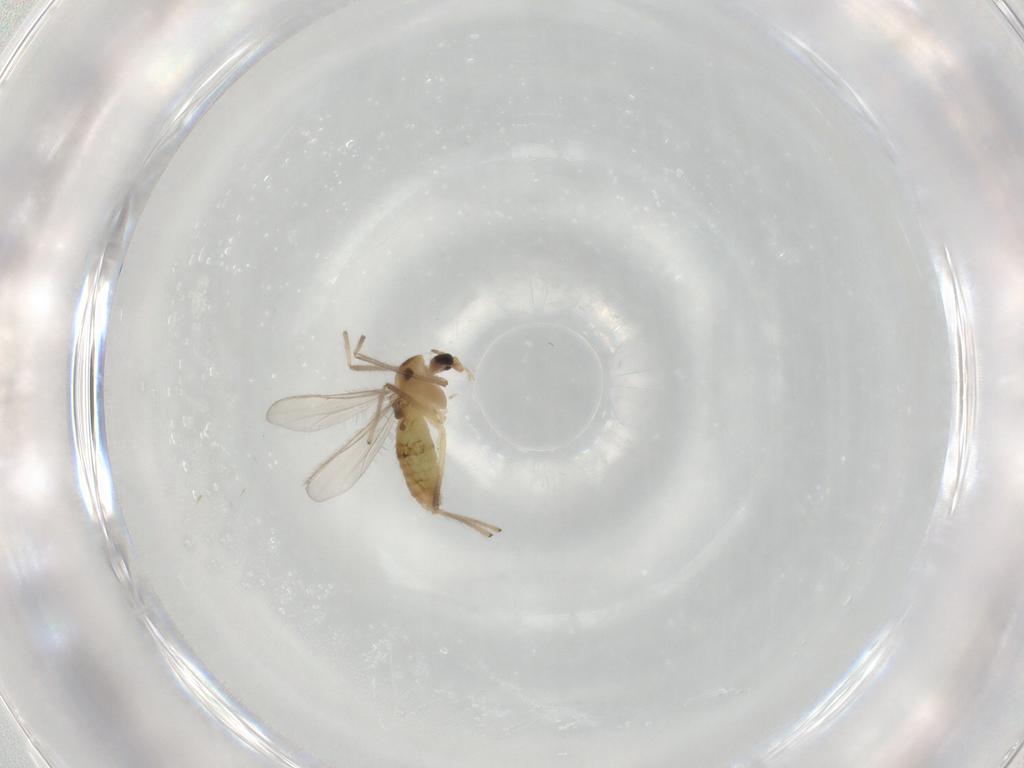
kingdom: Animalia
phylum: Arthropoda
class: Insecta
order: Diptera
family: Chironomidae
